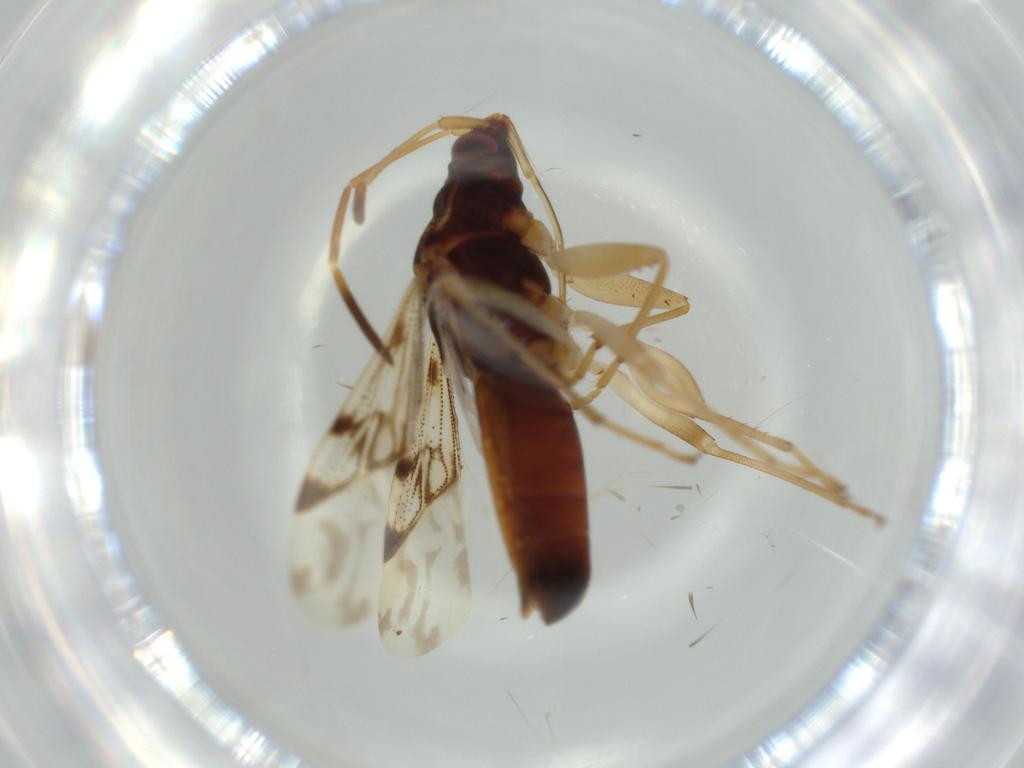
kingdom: Animalia
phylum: Arthropoda
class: Insecta
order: Hemiptera
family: Rhyparochromidae
